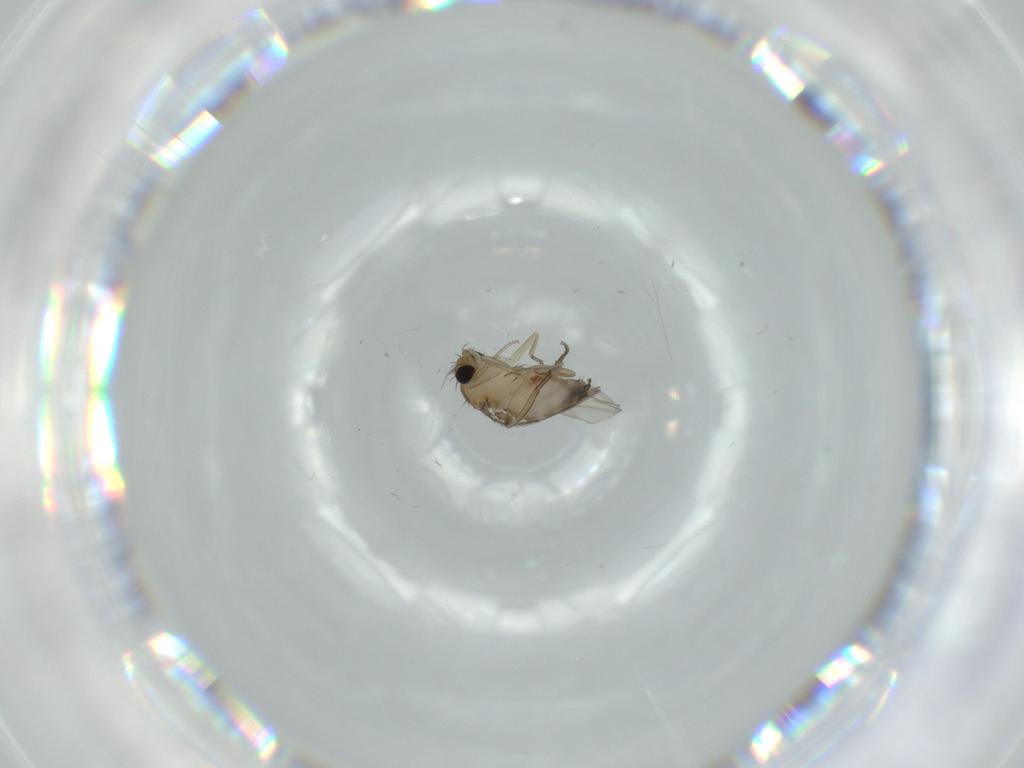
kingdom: Animalia
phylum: Arthropoda
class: Insecta
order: Diptera
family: Phoridae
